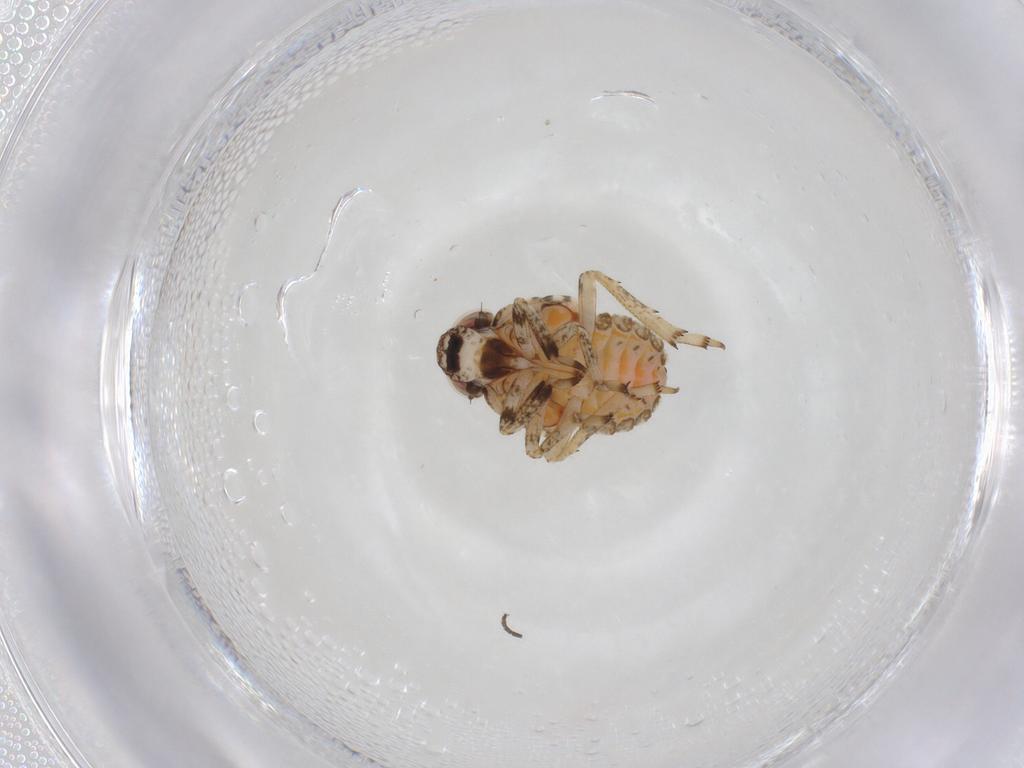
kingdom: Animalia
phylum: Arthropoda
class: Insecta
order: Hemiptera
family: Issidae
